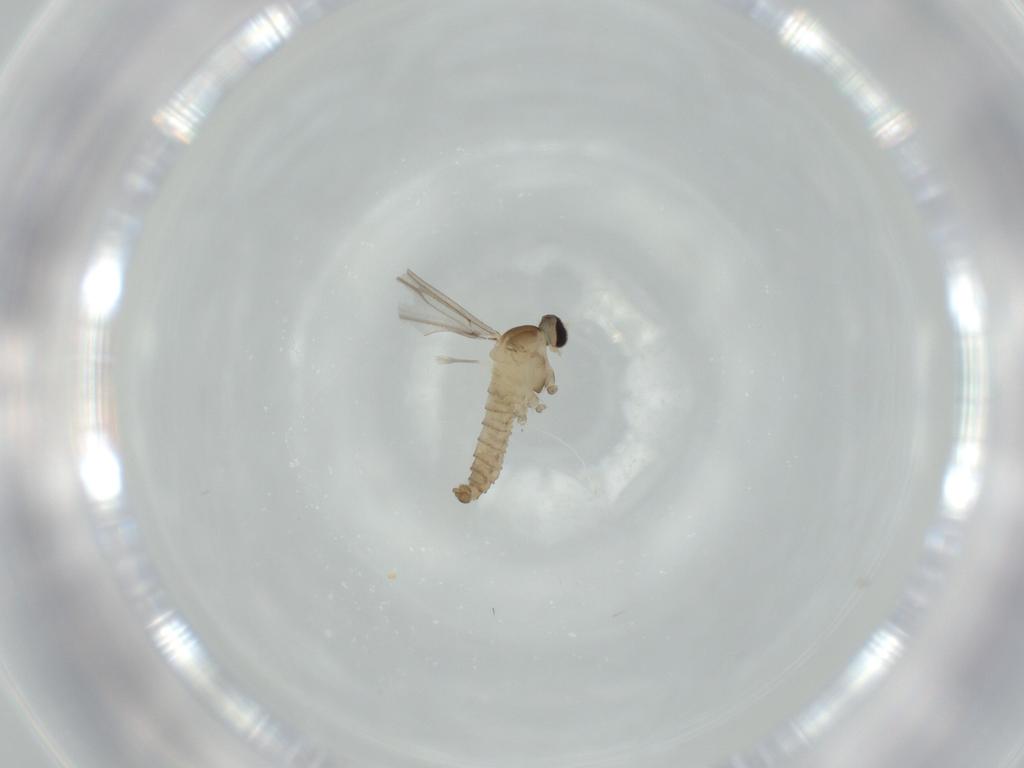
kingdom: Animalia
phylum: Arthropoda
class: Insecta
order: Diptera
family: Cecidomyiidae
